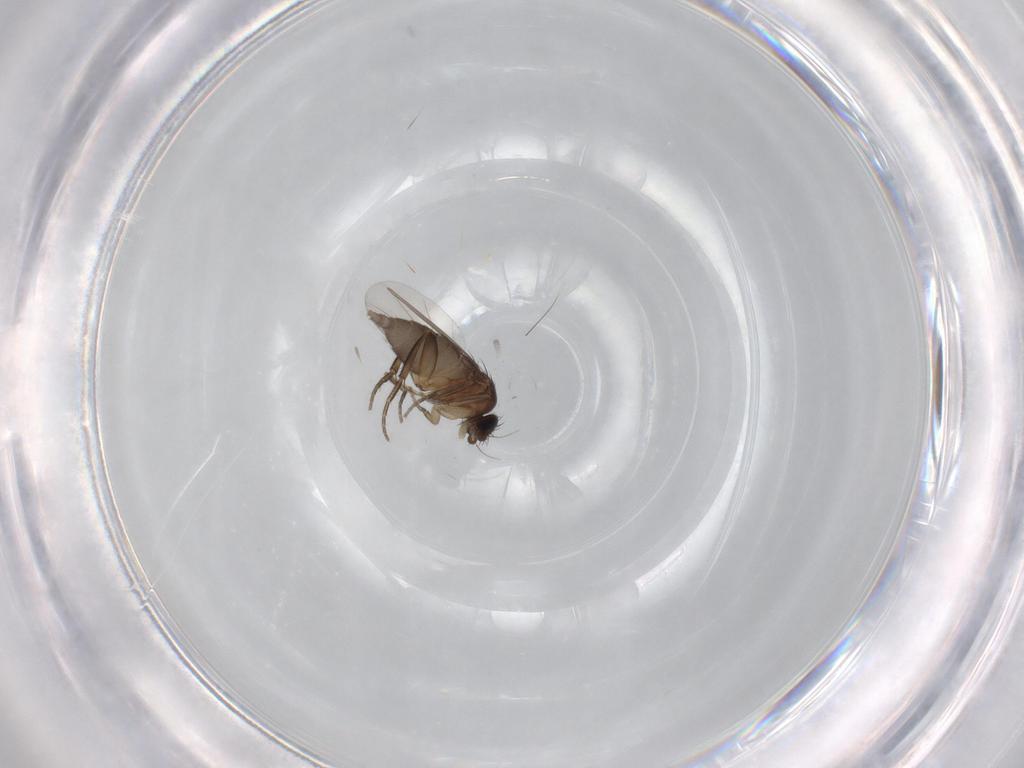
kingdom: Animalia
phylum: Arthropoda
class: Insecta
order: Diptera
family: Phoridae
